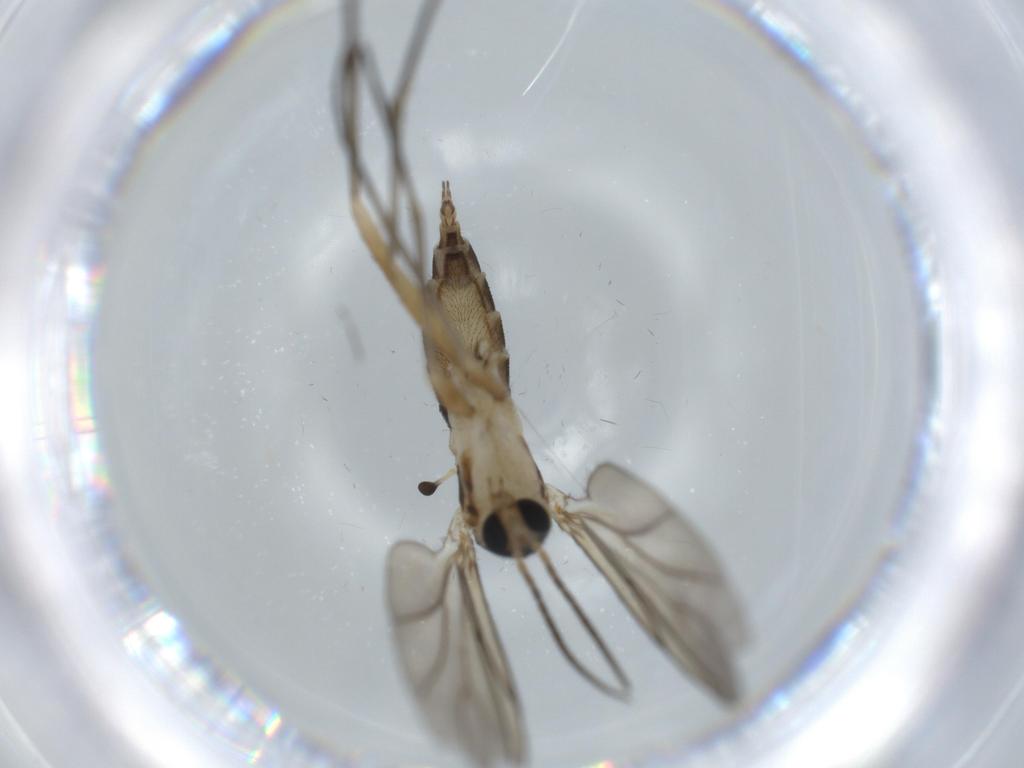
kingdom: Animalia
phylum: Arthropoda
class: Insecta
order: Diptera
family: Sciaridae
